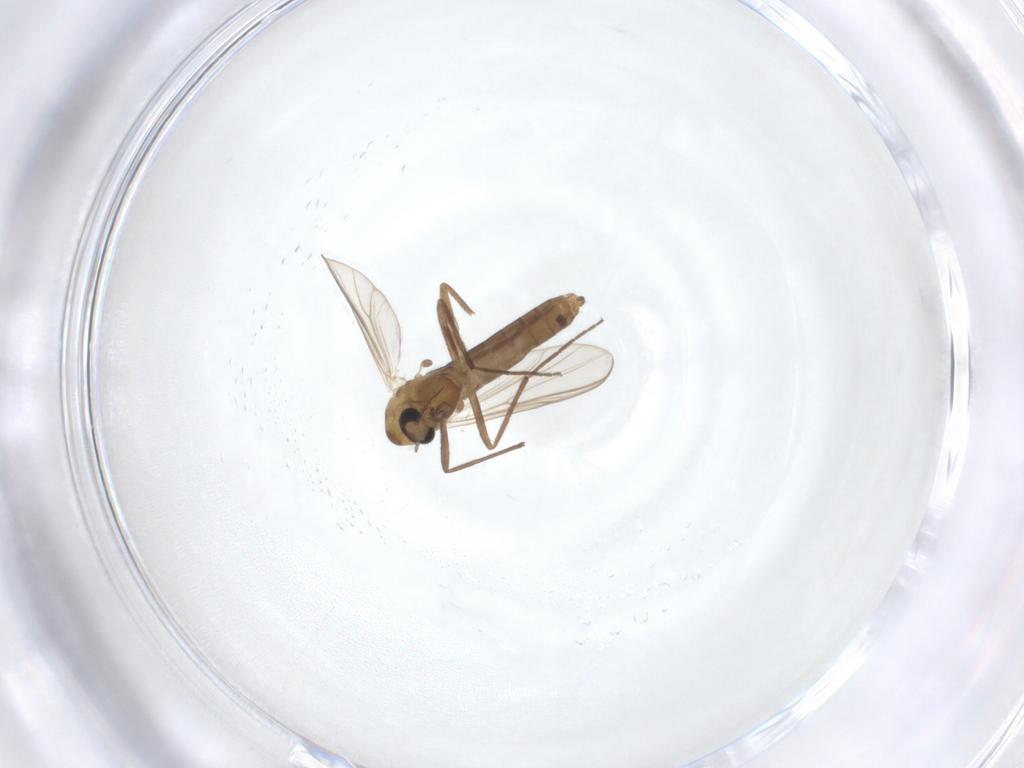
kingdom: Animalia
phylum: Arthropoda
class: Insecta
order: Diptera
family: Chironomidae
